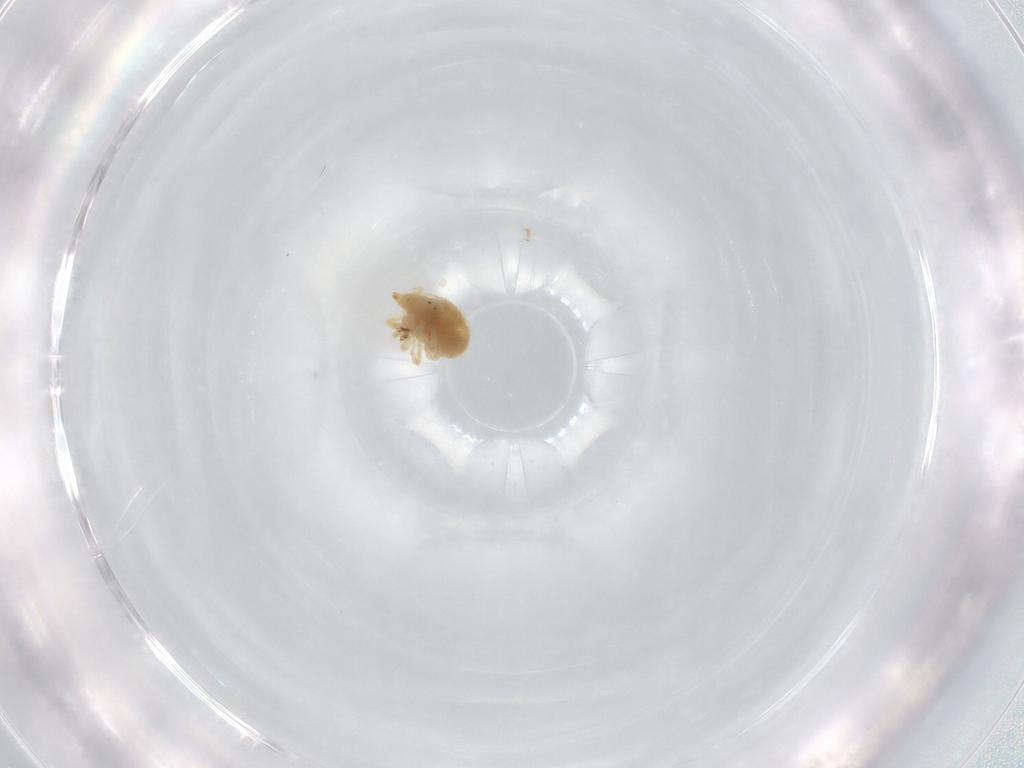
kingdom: Animalia
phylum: Arthropoda
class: Arachnida
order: Trombidiformes
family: Bdellidae
